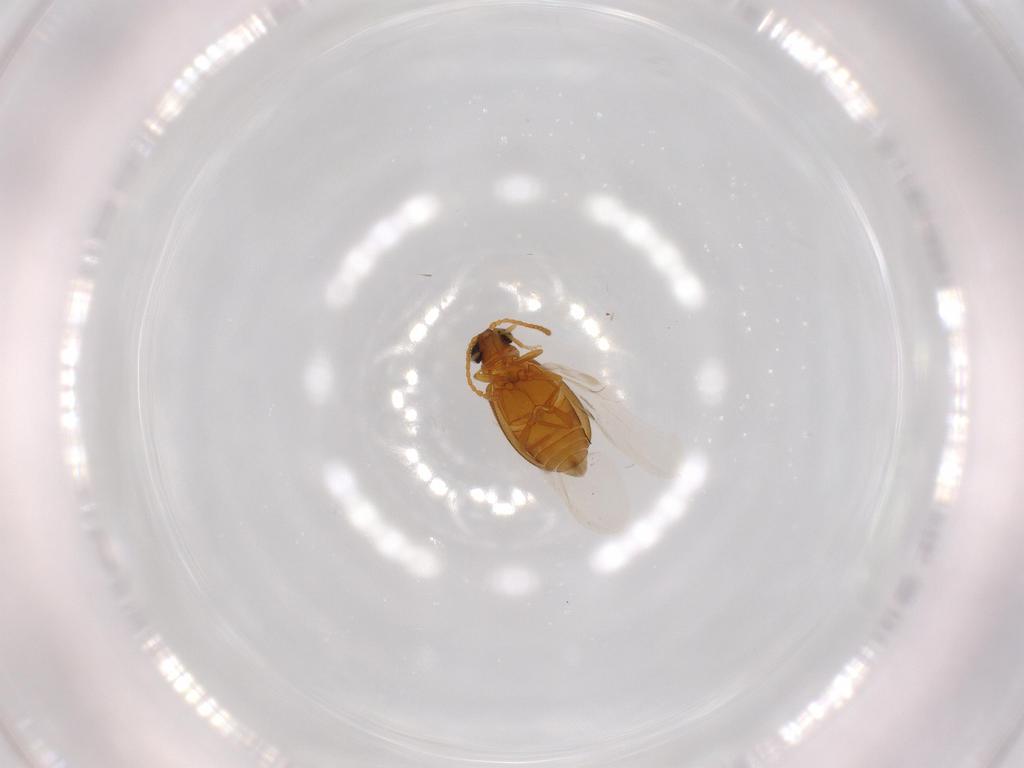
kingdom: Animalia
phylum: Arthropoda
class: Insecta
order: Coleoptera
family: Aderidae
